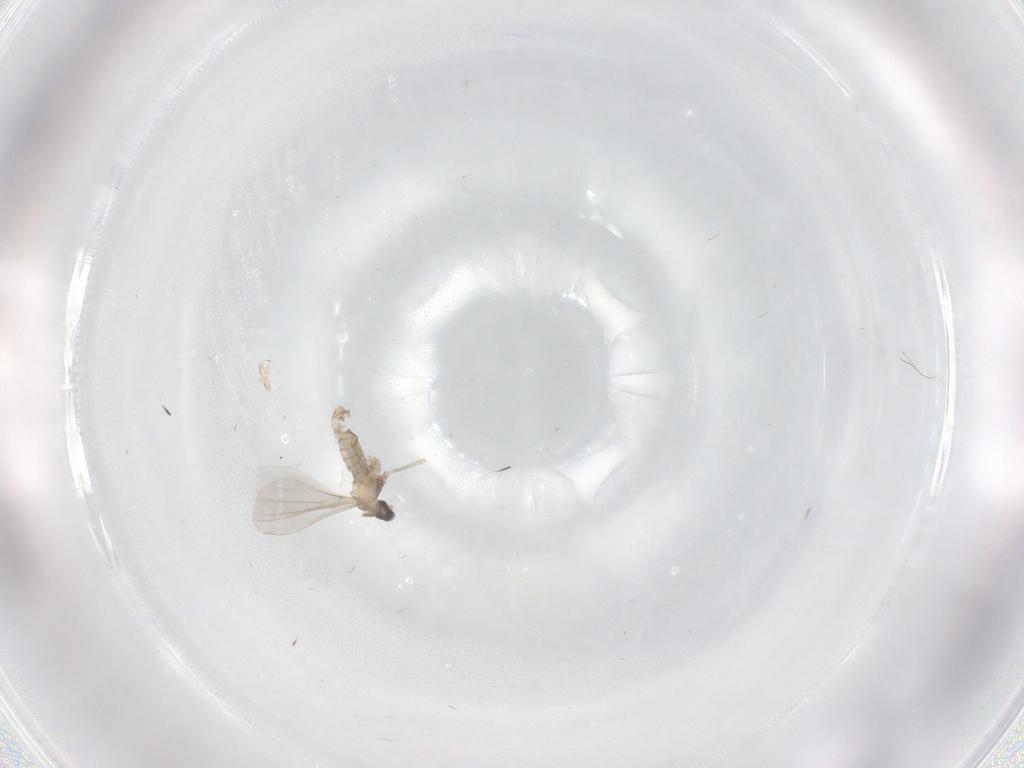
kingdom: Animalia
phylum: Arthropoda
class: Insecta
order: Diptera
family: Cecidomyiidae
